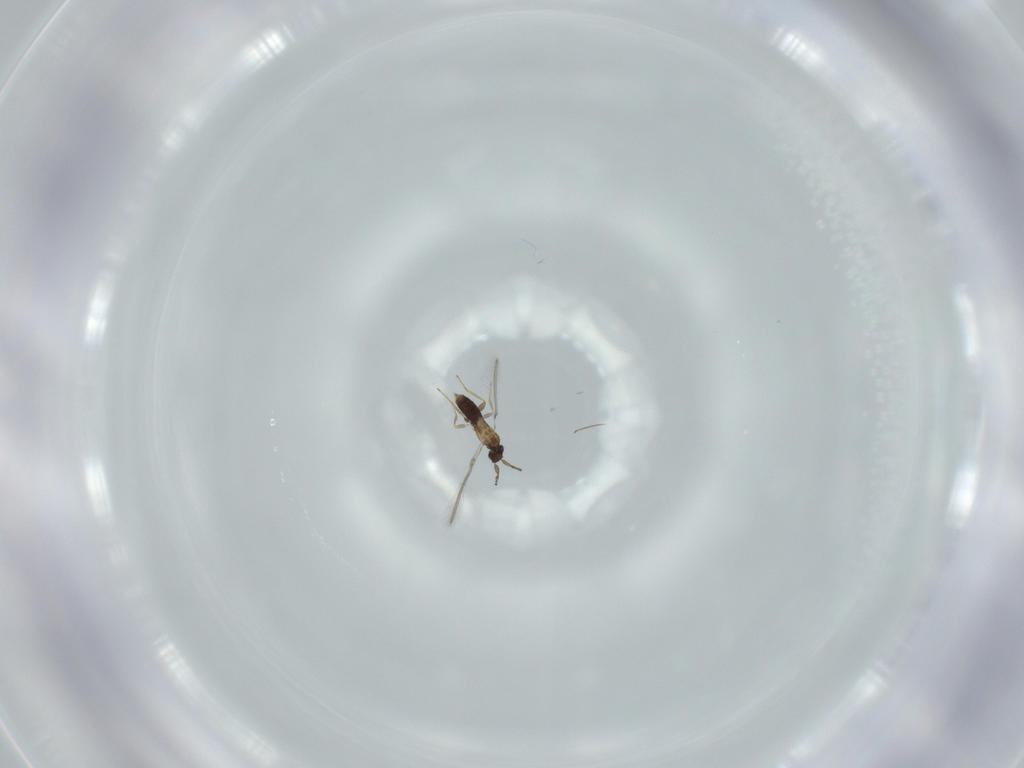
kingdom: Animalia
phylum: Arthropoda
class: Insecta
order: Hymenoptera
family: Mymaridae
